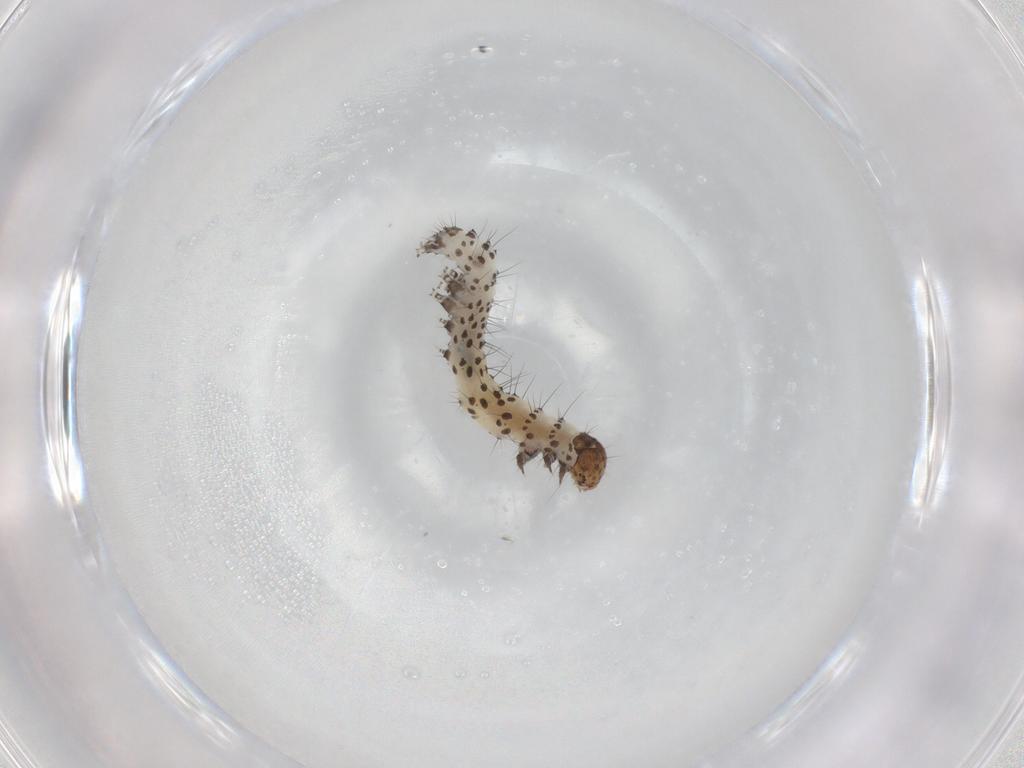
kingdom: Animalia
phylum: Arthropoda
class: Insecta
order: Lepidoptera
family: Noctuidae
